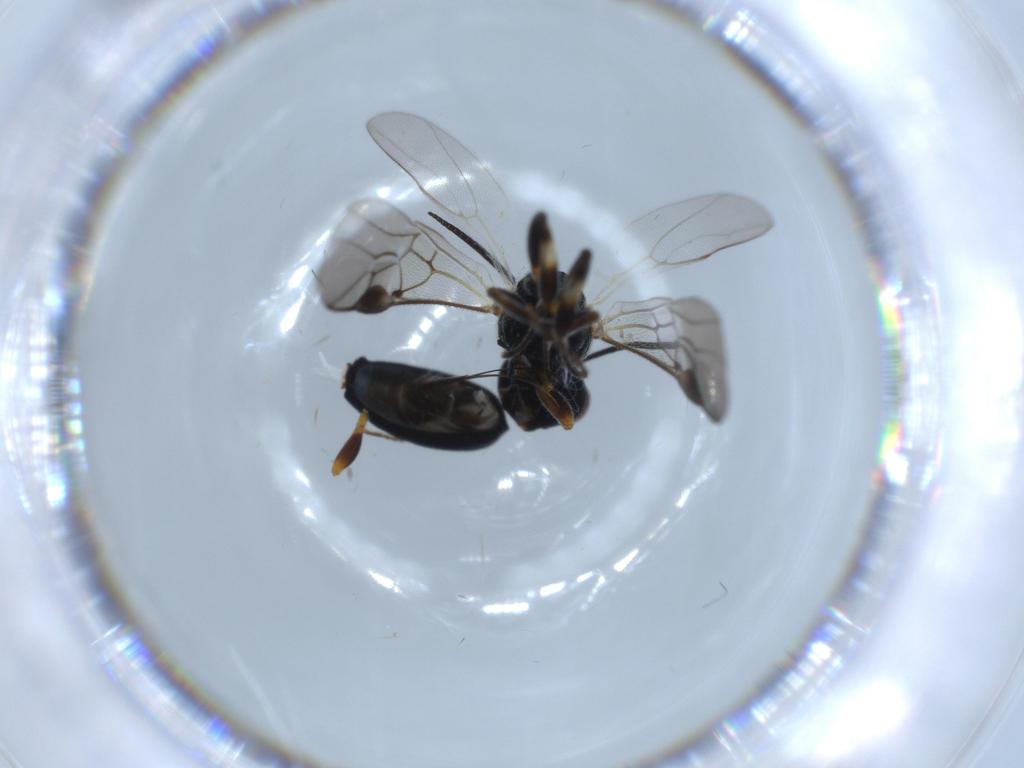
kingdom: Animalia
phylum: Arthropoda
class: Insecta
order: Hymenoptera
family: Braconidae
